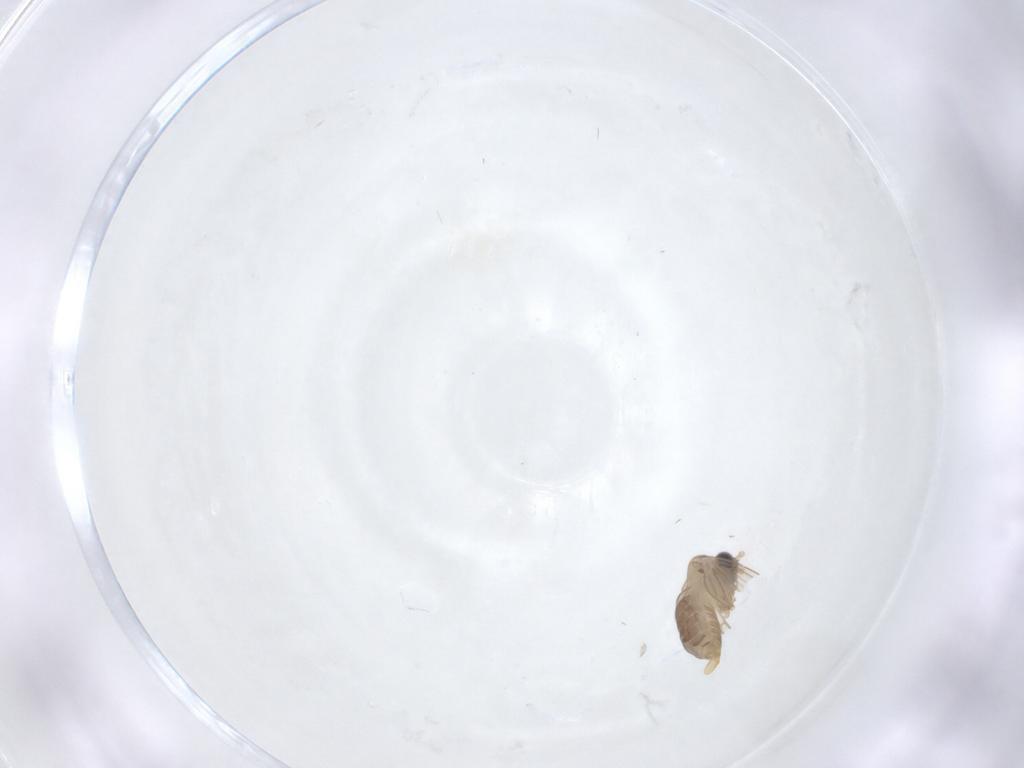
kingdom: Animalia
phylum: Arthropoda
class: Insecta
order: Diptera
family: Psychodidae
